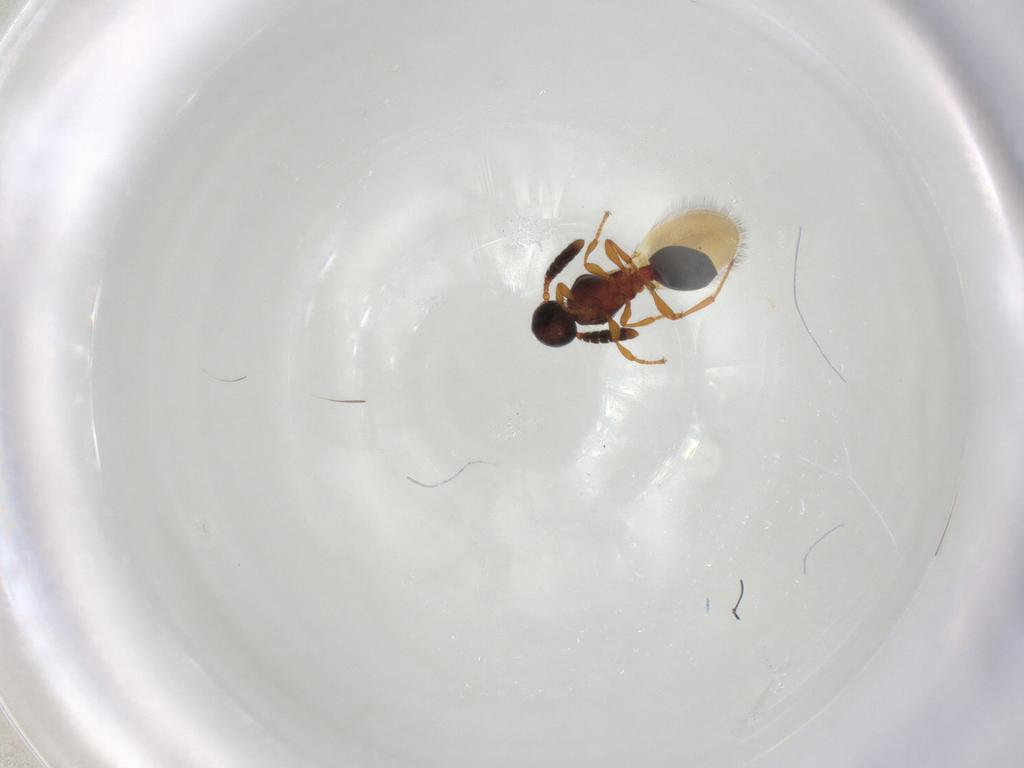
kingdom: Animalia
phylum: Arthropoda
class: Insecta
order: Hymenoptera
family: Diapriidae
